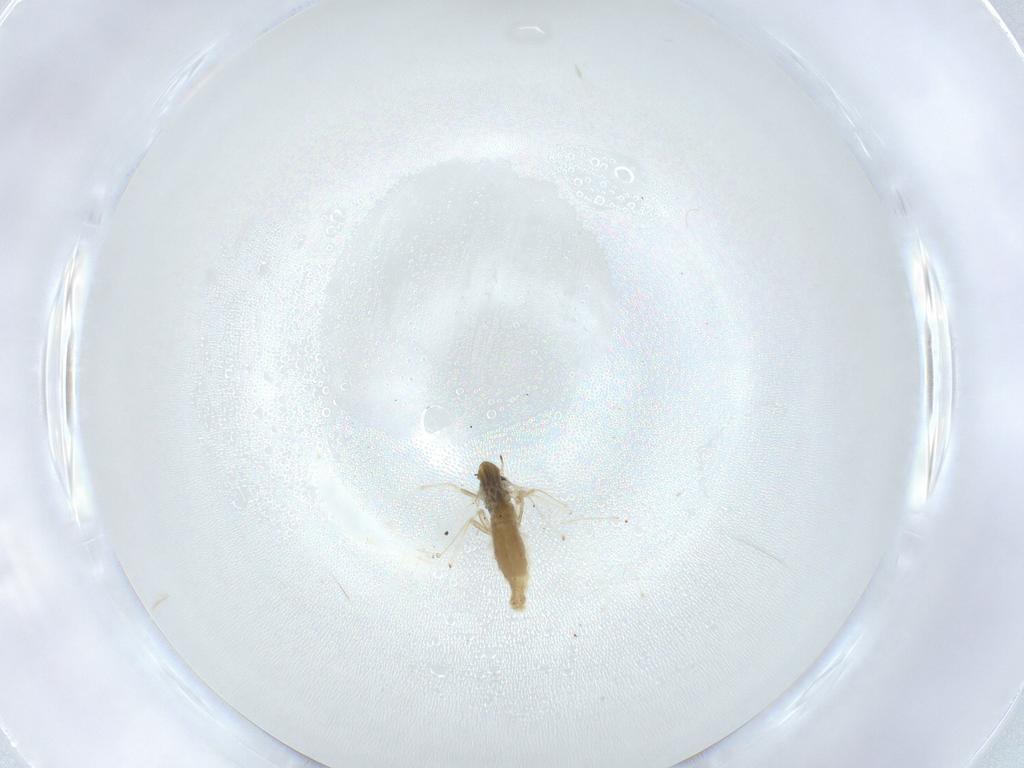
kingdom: Animalia
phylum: Arthropoda
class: Insecta
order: Diptera
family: Chironomidae
